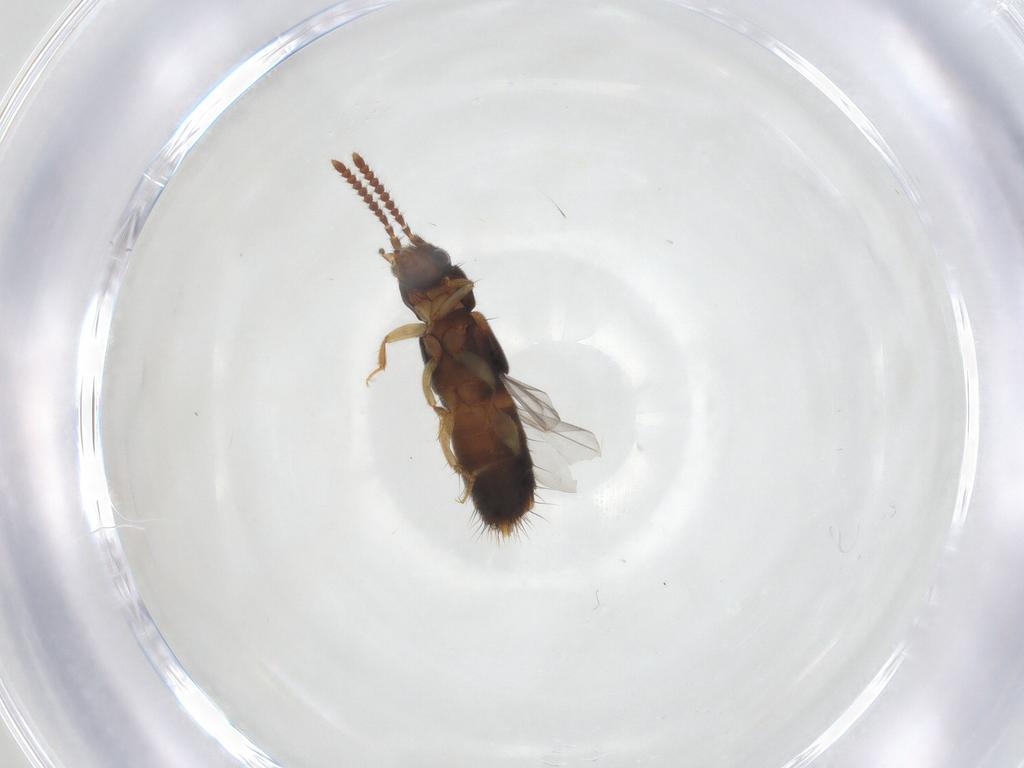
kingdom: Animalia
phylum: Arthropoda
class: Insecta
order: Coleoptera
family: Staphylinidae
